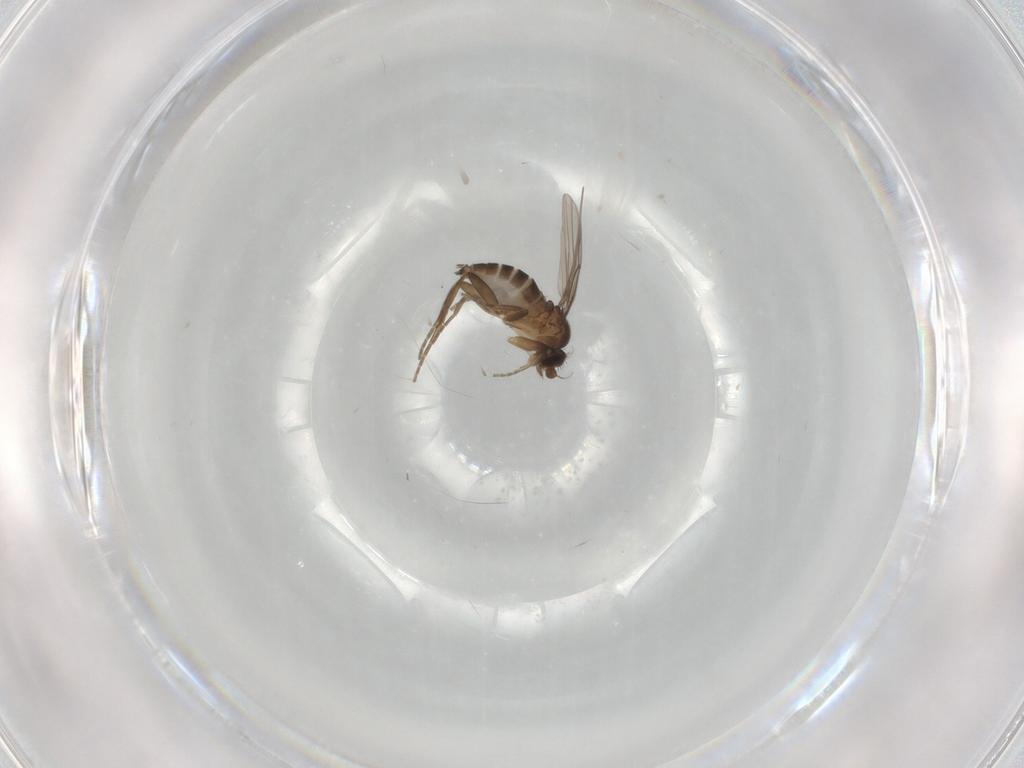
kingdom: Animalia
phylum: Arthropoda
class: Insecta
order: Diptera
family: Phoridae
